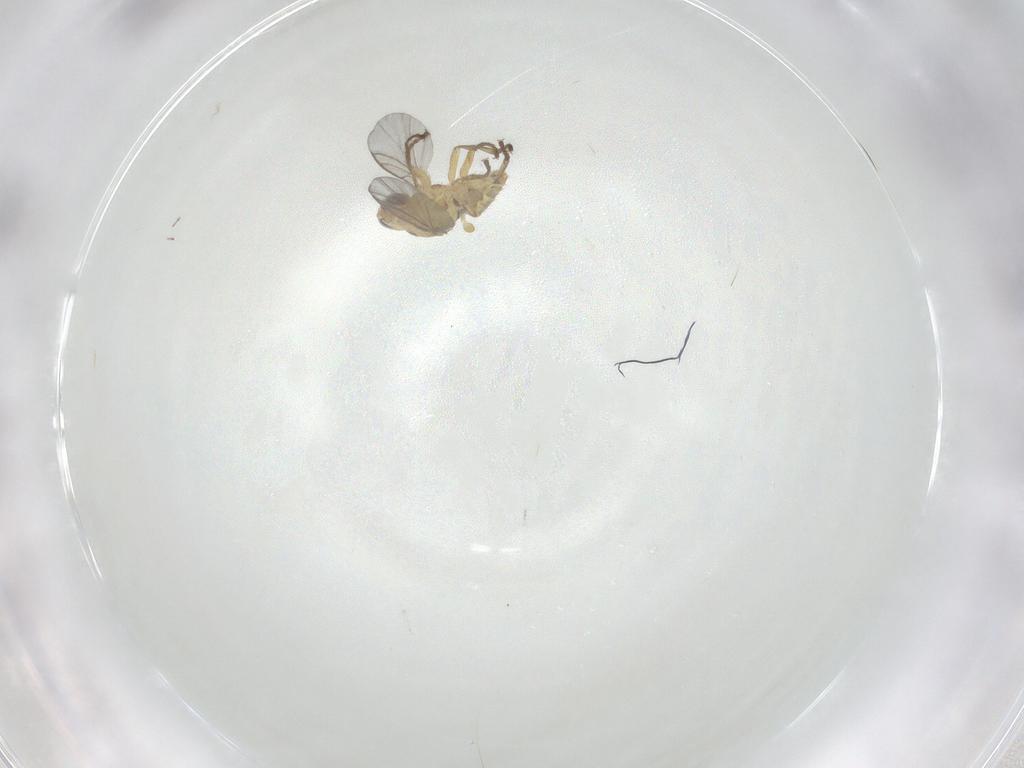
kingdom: Animalia
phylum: Arthropoda
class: Insecta
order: Diptera
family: Agromyzidae
